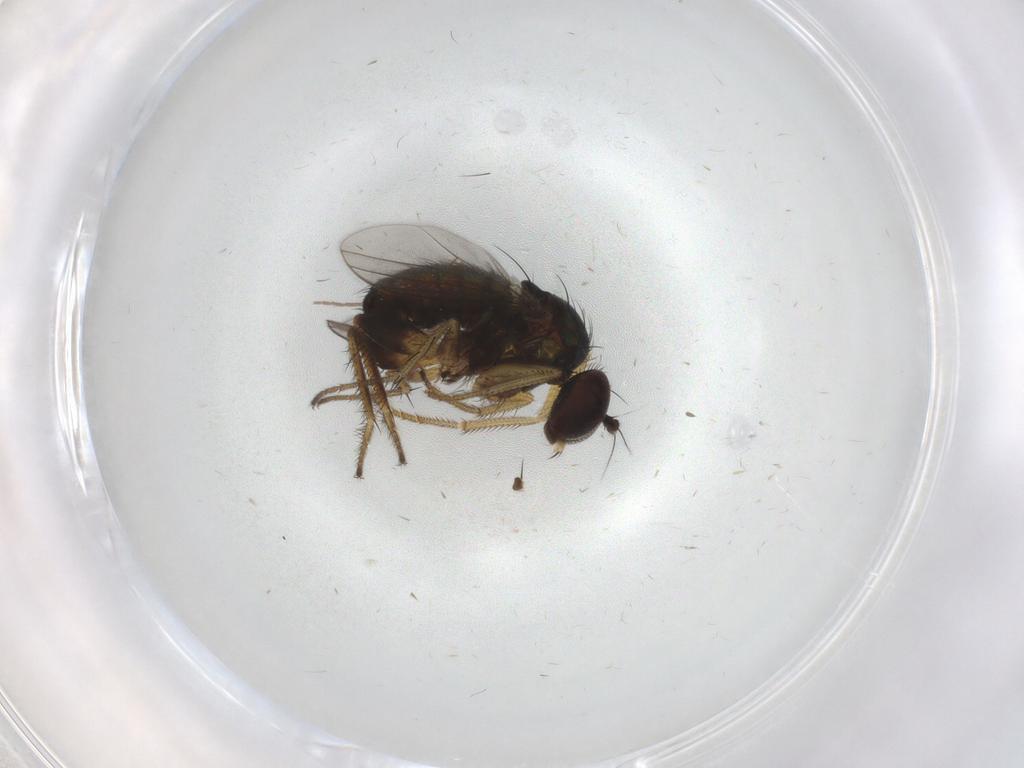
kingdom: Animalia
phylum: Arthropoda
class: Insecta
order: Diptera
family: Dolichopodidae
